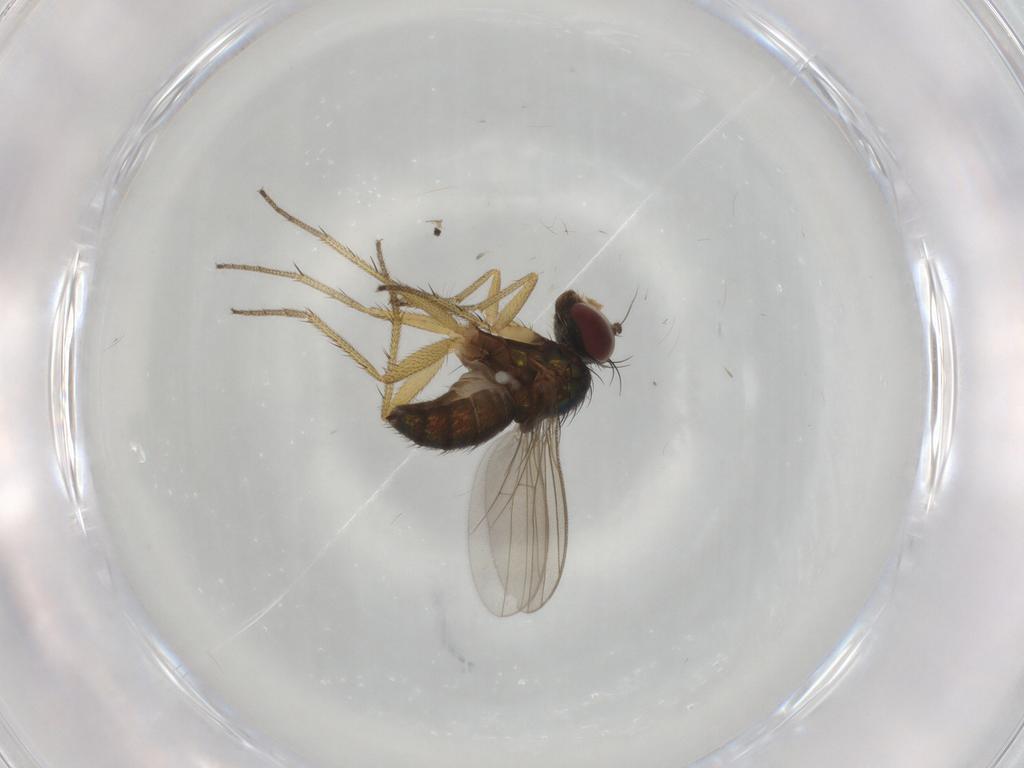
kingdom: Animalia
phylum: Arthropoda
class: Insecta
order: Diptera
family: Dolichopodidae
